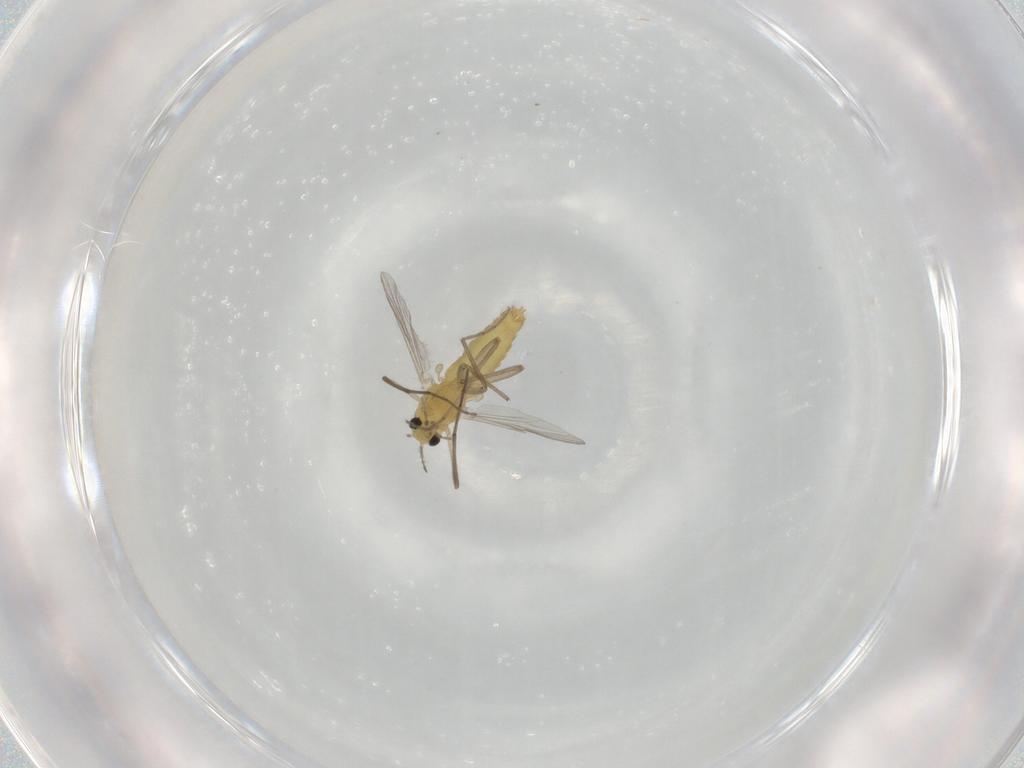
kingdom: Animalia
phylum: Arthropoda
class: Insecta
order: Diptera
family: Chironomidae
